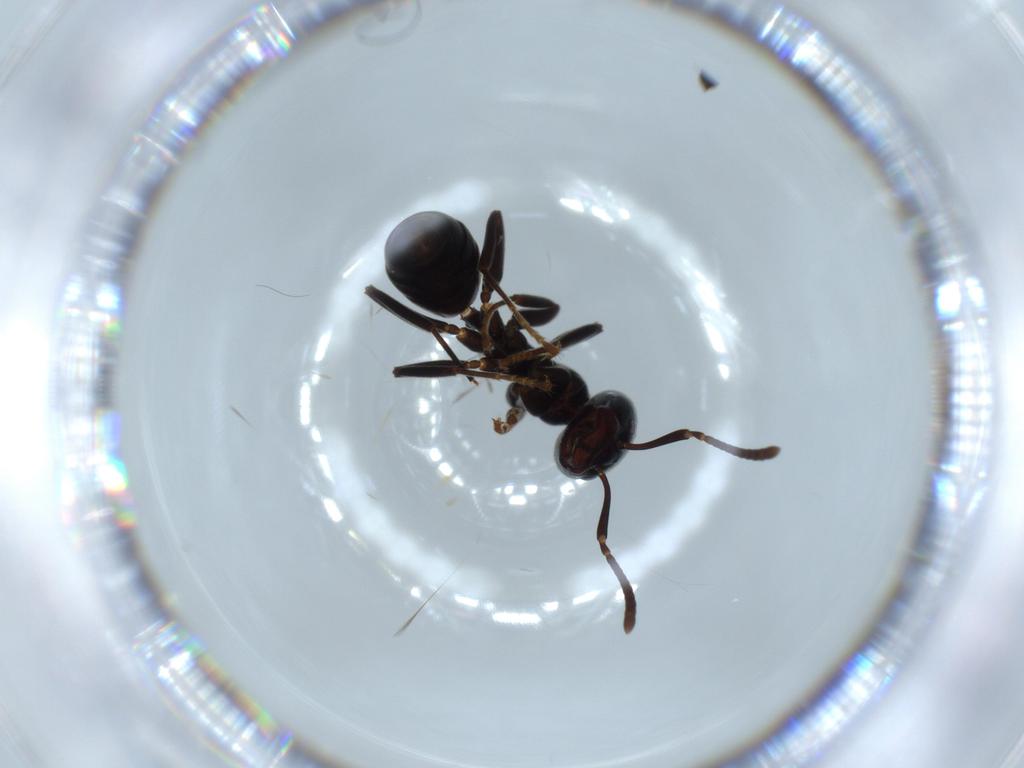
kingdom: Animalia
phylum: Arthropoda
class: Insecta
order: Hymenoptera
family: Formicidae
